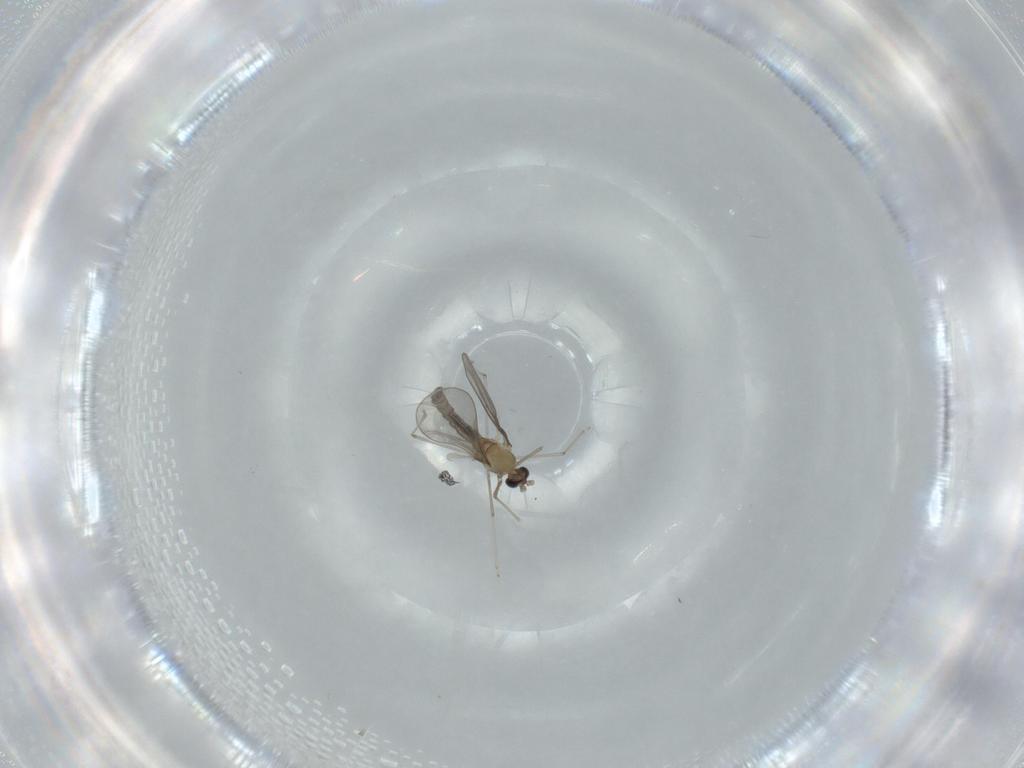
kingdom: Animalia
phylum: Arthropoda
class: Insecta
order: Diptera
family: Cecidomyiidae
